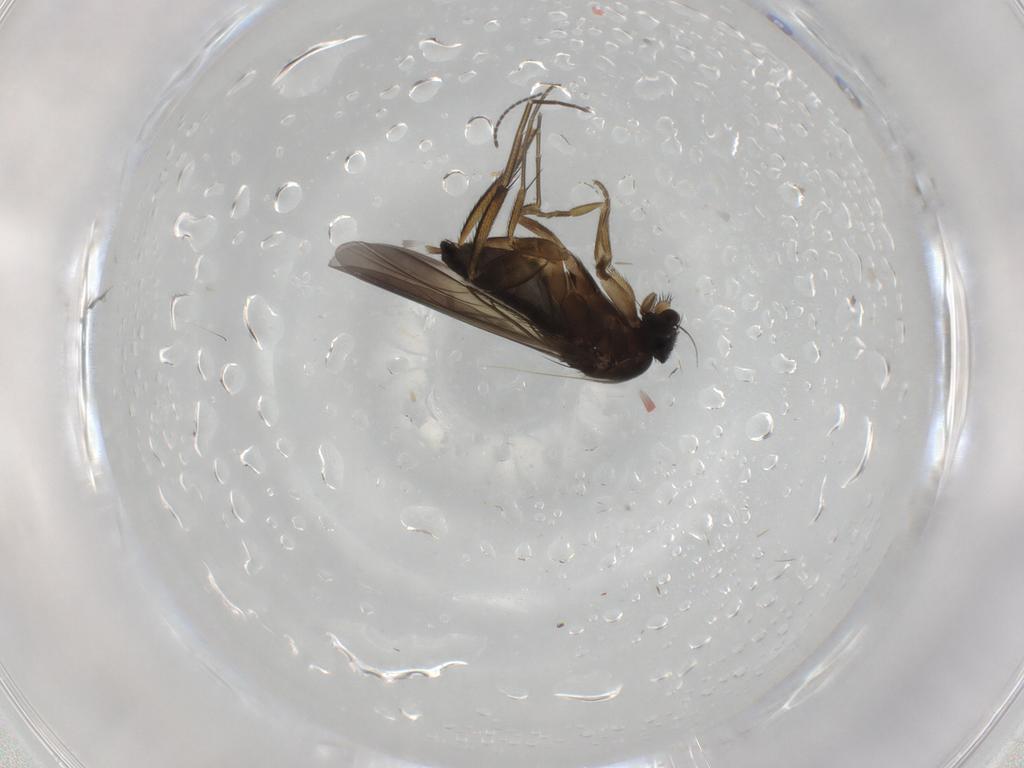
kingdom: Animalia
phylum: Arthropoda
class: Insecta
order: Diptera
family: Phoridae
